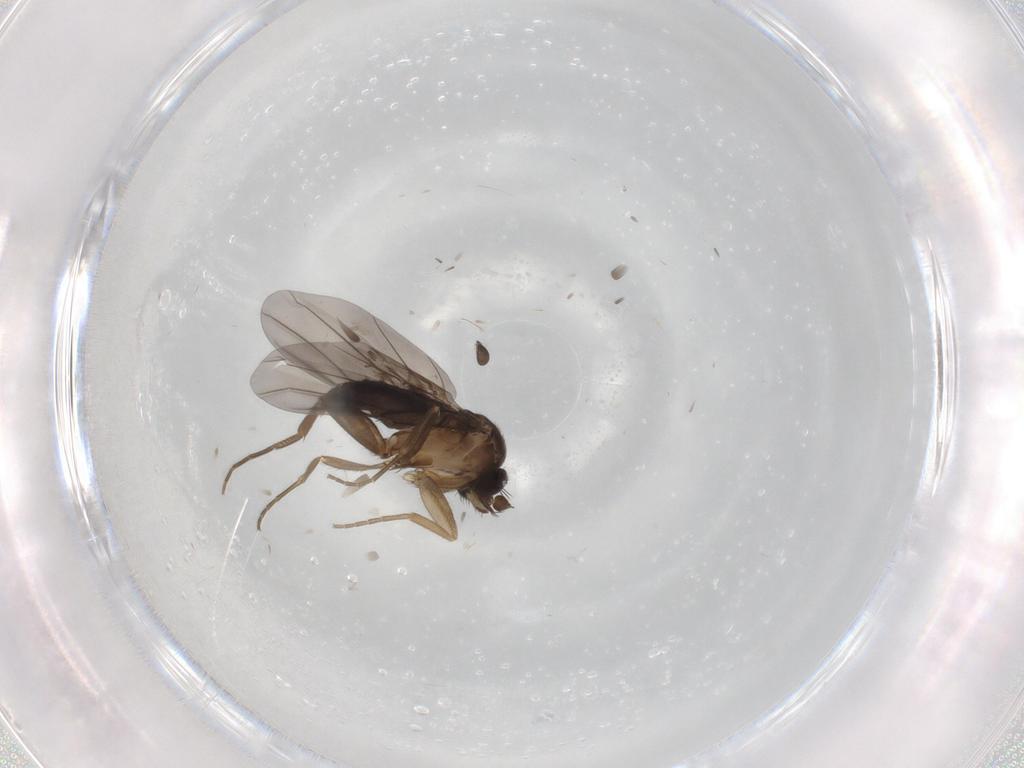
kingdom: Animalia
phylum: Arthropoda
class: Insecta
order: Diptera
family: Phoridae
